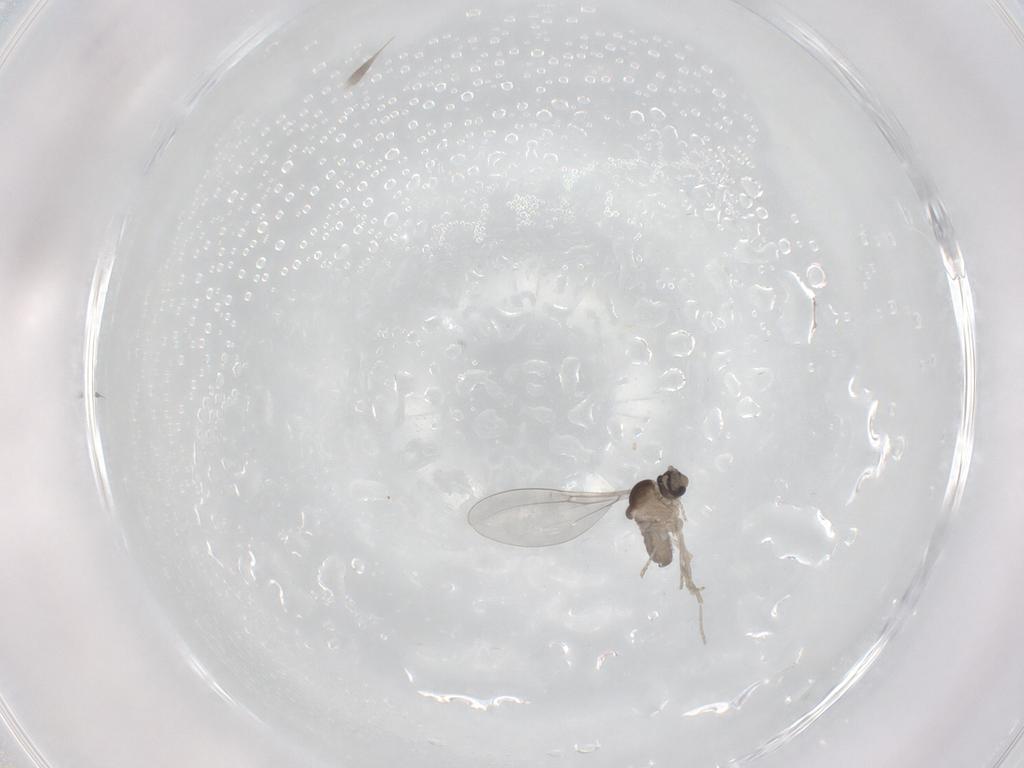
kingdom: Animalia
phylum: Arthropoda
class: Insecta
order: Diptera
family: Cecidomyiidae
